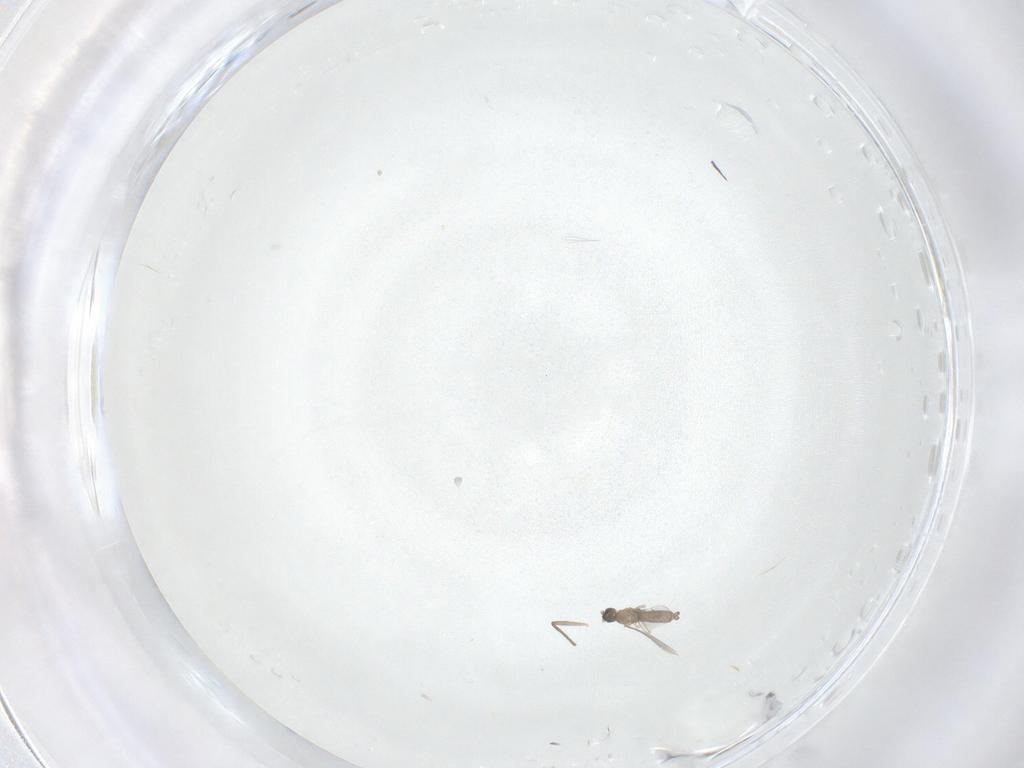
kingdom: Animalia
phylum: Arthropoda
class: Insecta
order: Diptera
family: Cecidomyiidae
